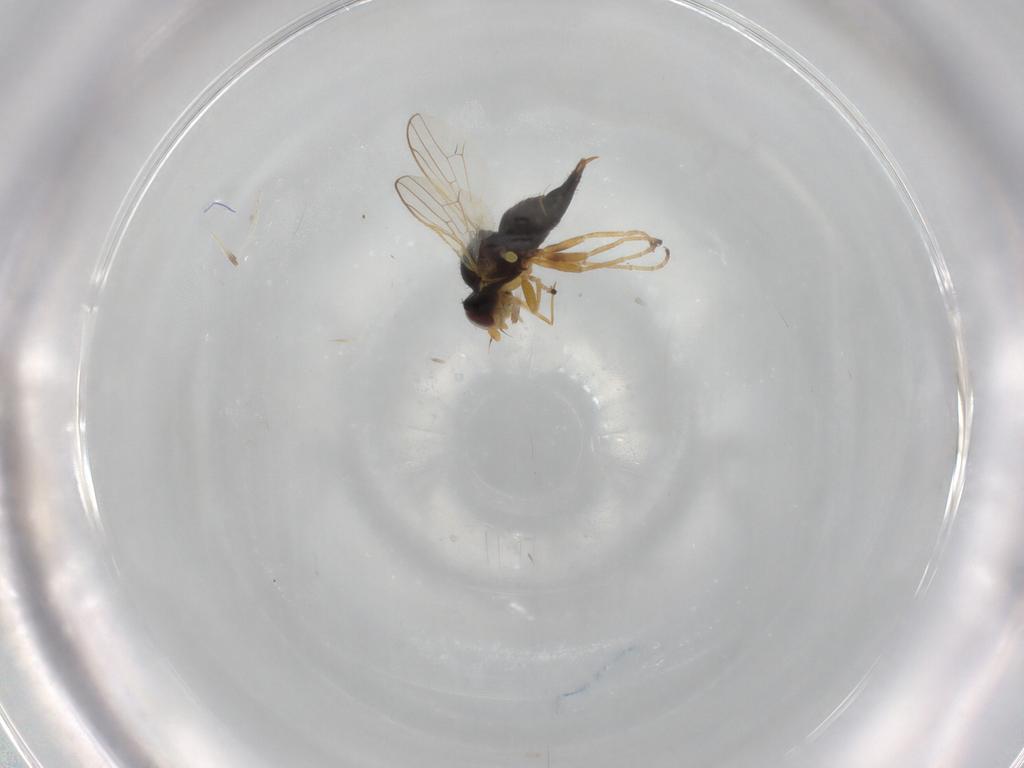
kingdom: Animalia
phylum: Arthropoda
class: Insecta
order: Diptera
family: Tephritidae
